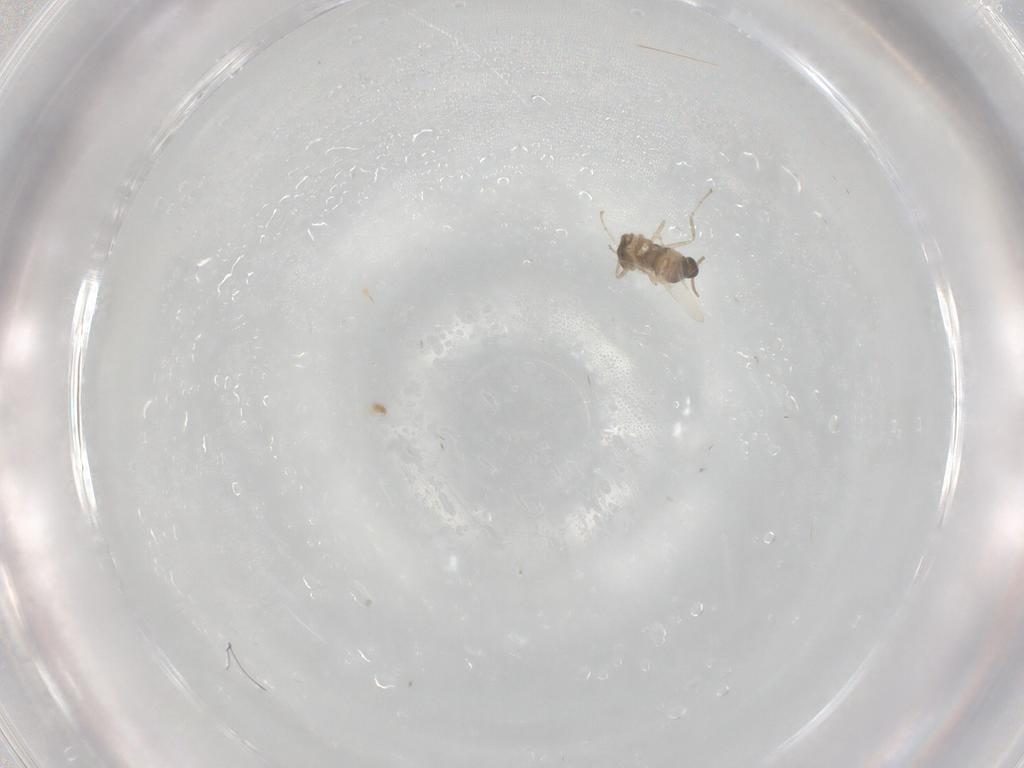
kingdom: Animalia
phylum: Arthropoda
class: Insecta
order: Diptera
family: Cecidomyiidae
